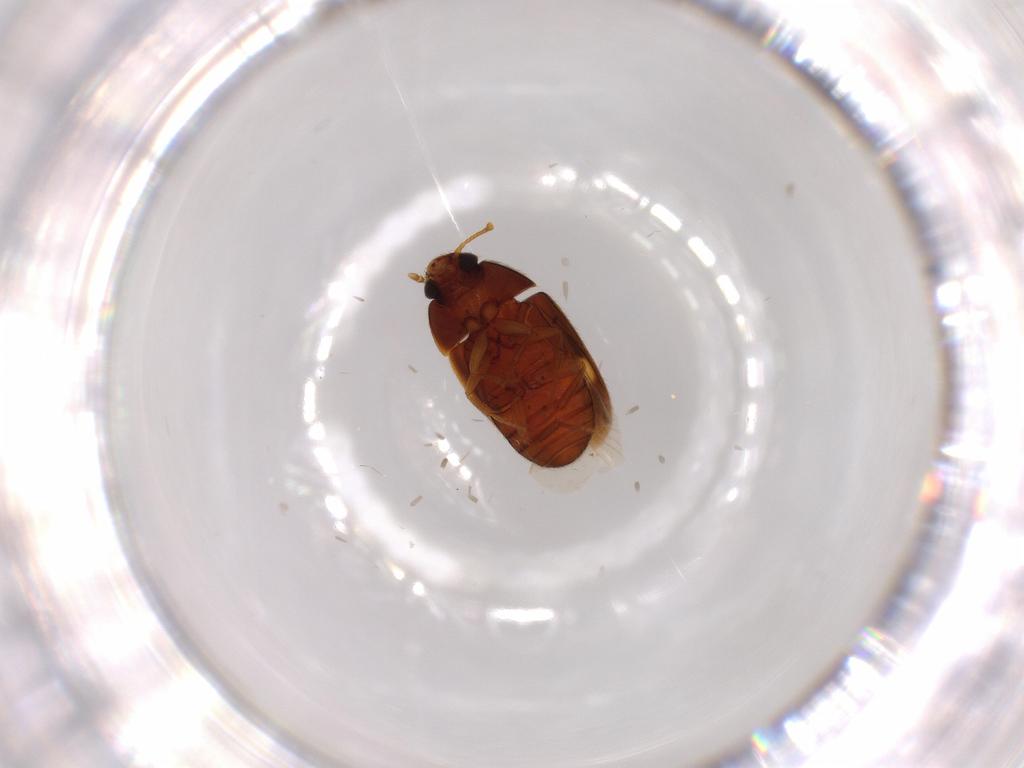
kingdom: Animalia
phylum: Arthropoda
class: Insecta
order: Coleoptera
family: Mycetophagidae
